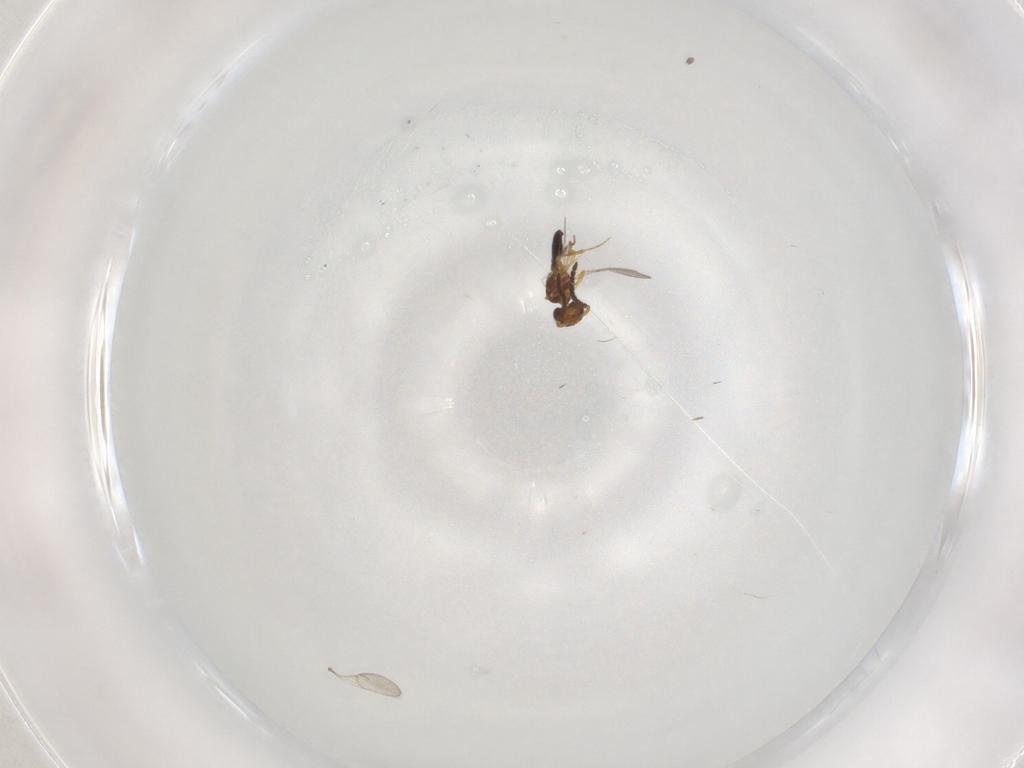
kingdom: Animalia
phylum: Arthropoda
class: Insecta
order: Hymenoptera
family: Scelionidae
